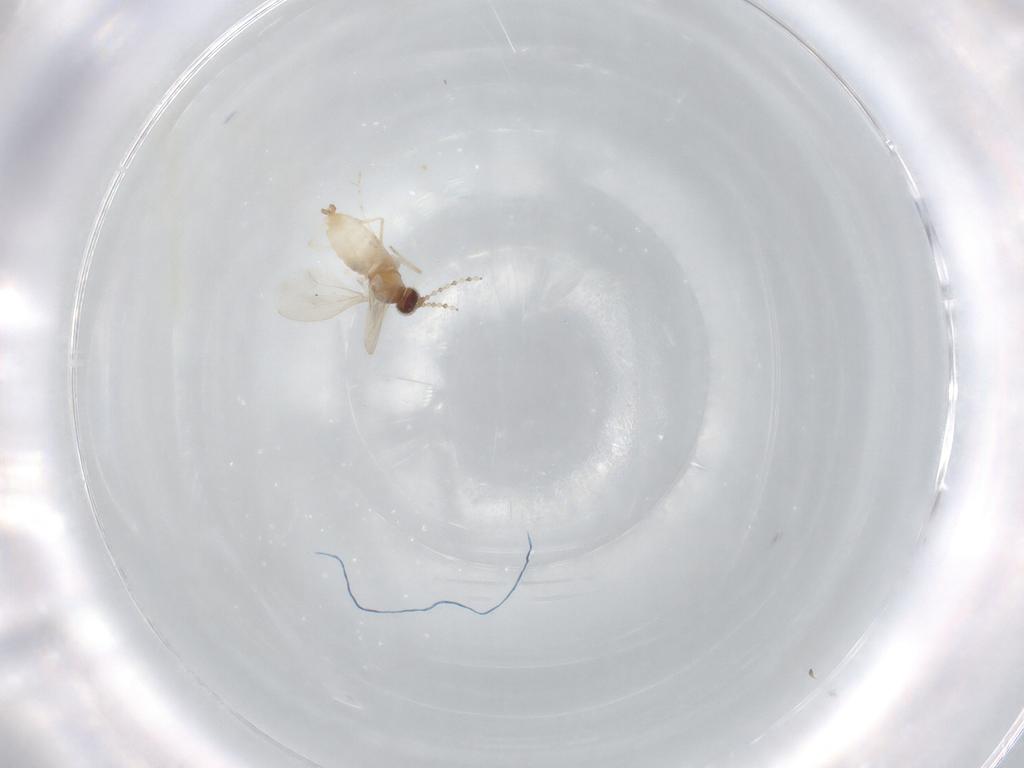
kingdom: Animalia
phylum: Arthropoda
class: Insecta
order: Diptera
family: Cecidomyiidae
